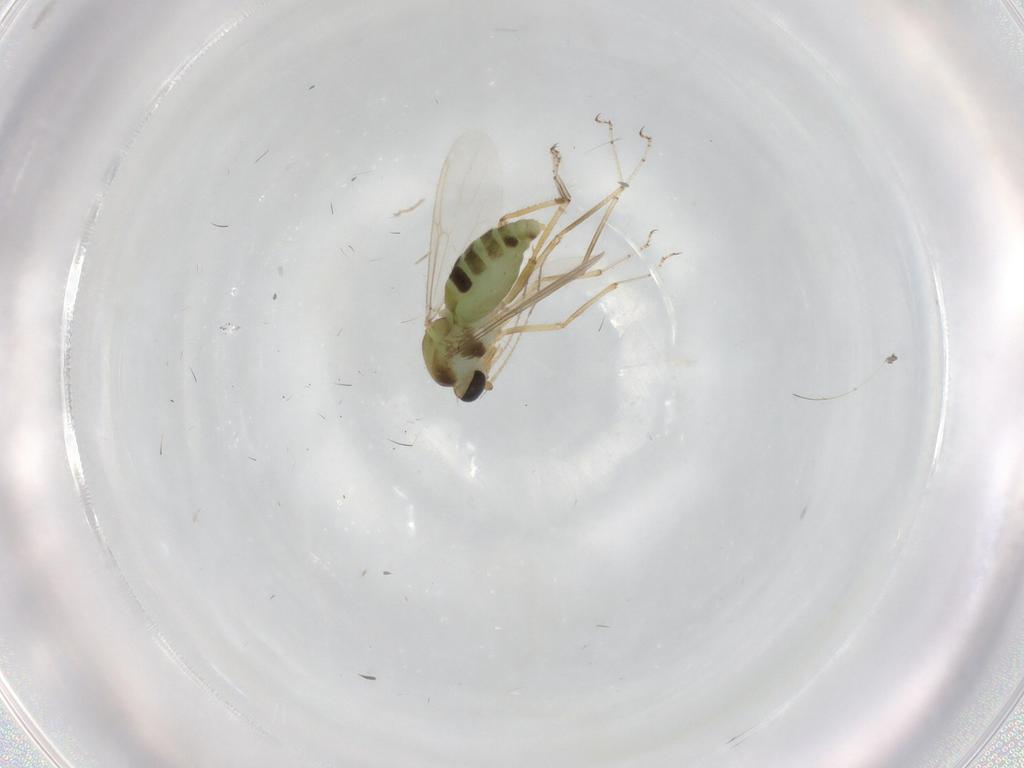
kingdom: Animalia
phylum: Arthropoda
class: Insecta
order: Diptera
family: Ceratopogonidae
